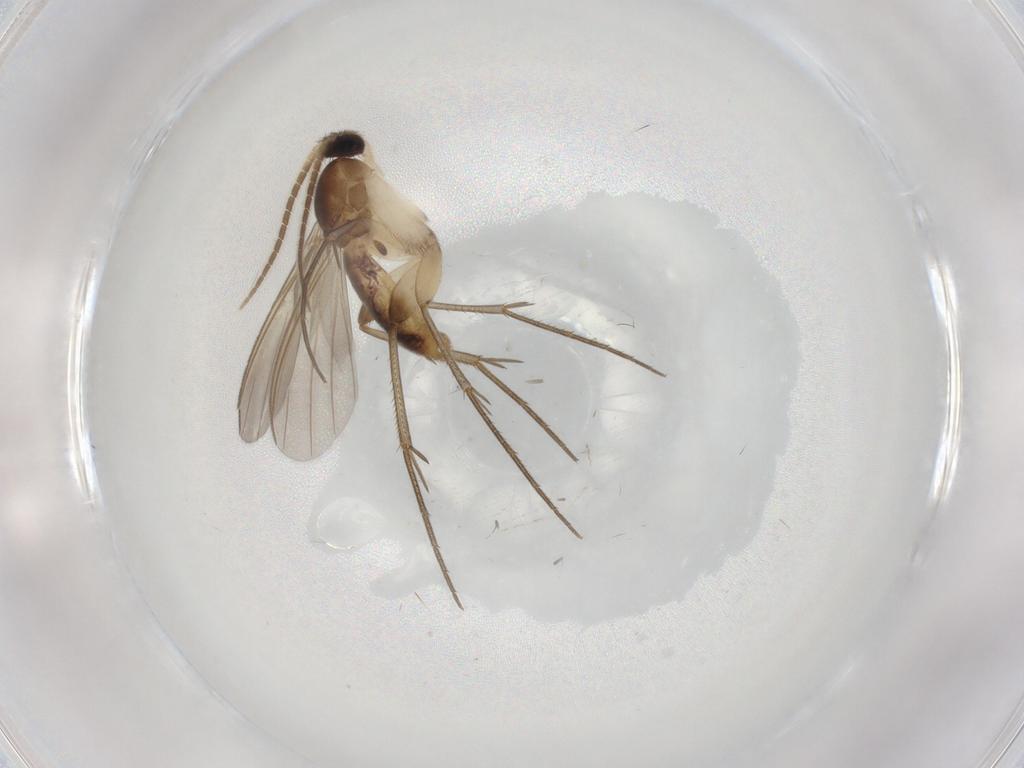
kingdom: Animalia
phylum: Arthropoda
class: Insecta
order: Diptera
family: Mycetophilidae
